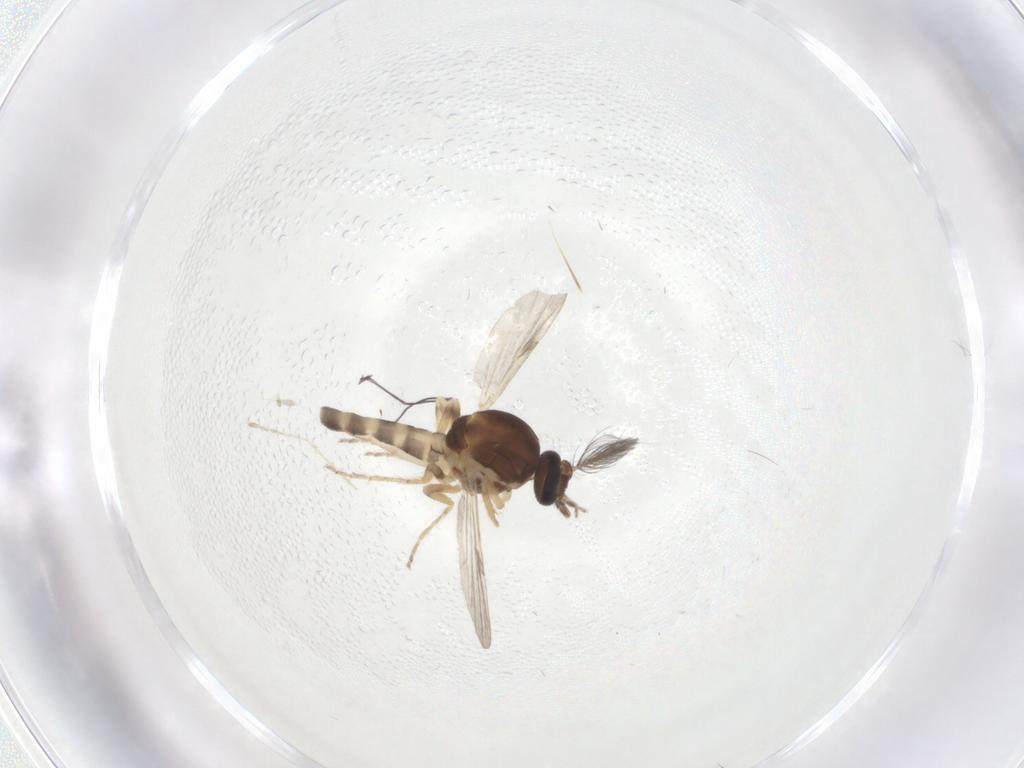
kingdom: Animalia
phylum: Arthropoda
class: Insecta
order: Diptera
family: Ceratopogonidae
